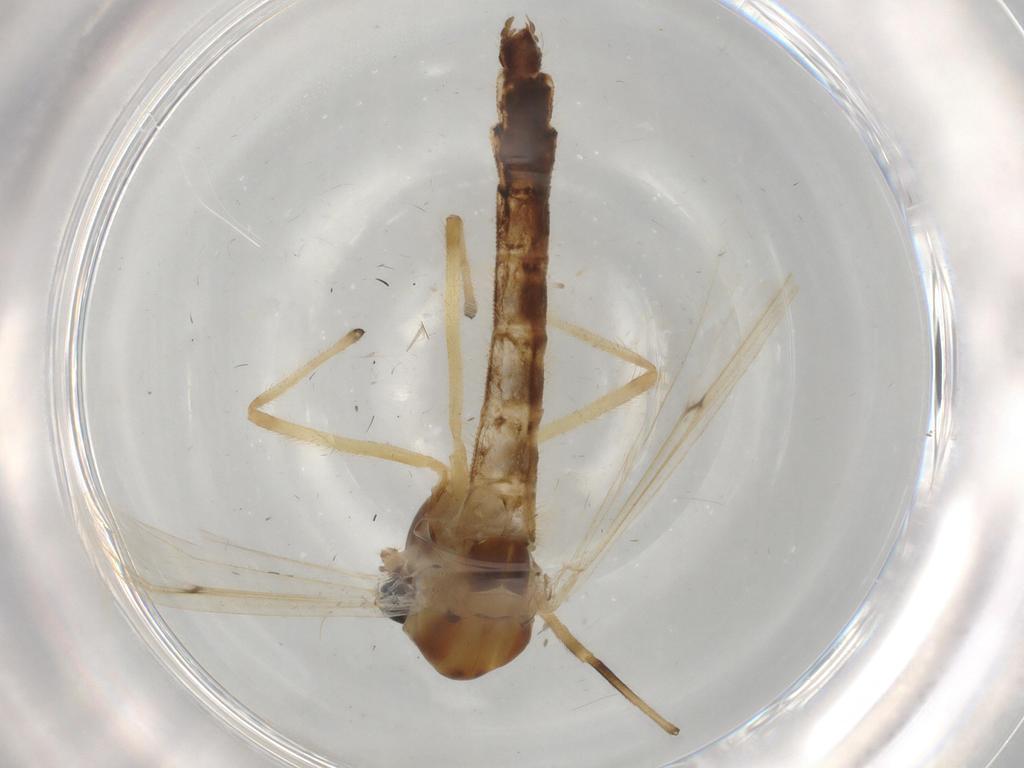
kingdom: Animalia
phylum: Arthropoda
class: Insecta
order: Diptera
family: Chironomidae
